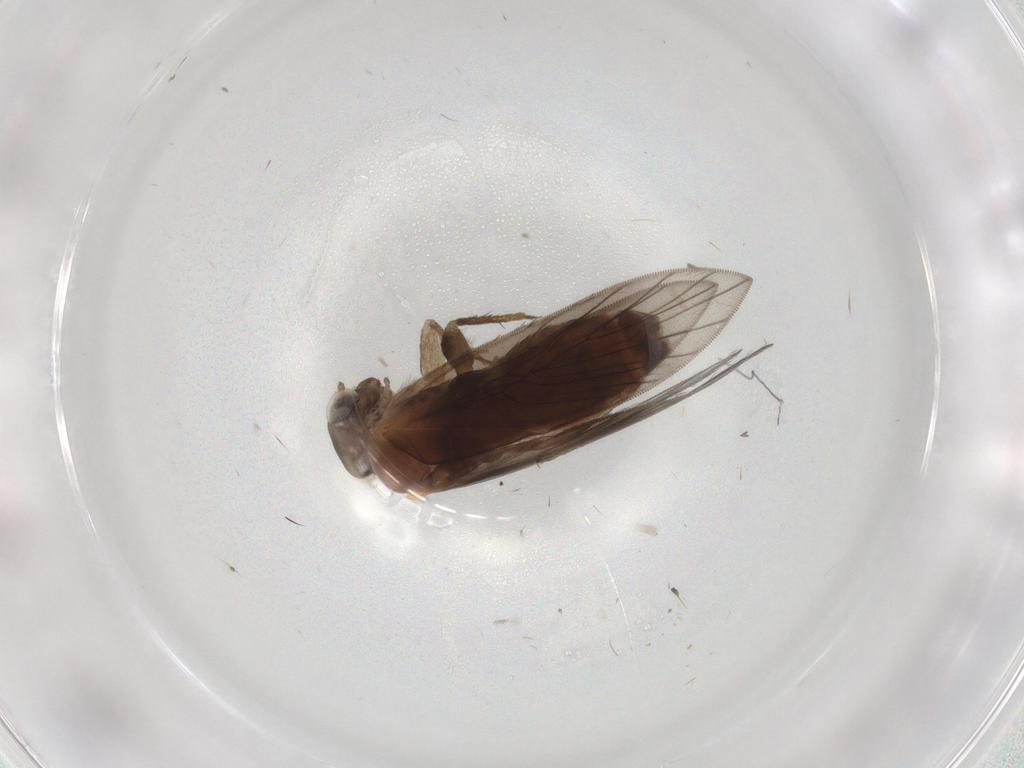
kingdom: Animalia
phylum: Arthropoda
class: Insecta
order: Psocodea
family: Lepidopsocidae
